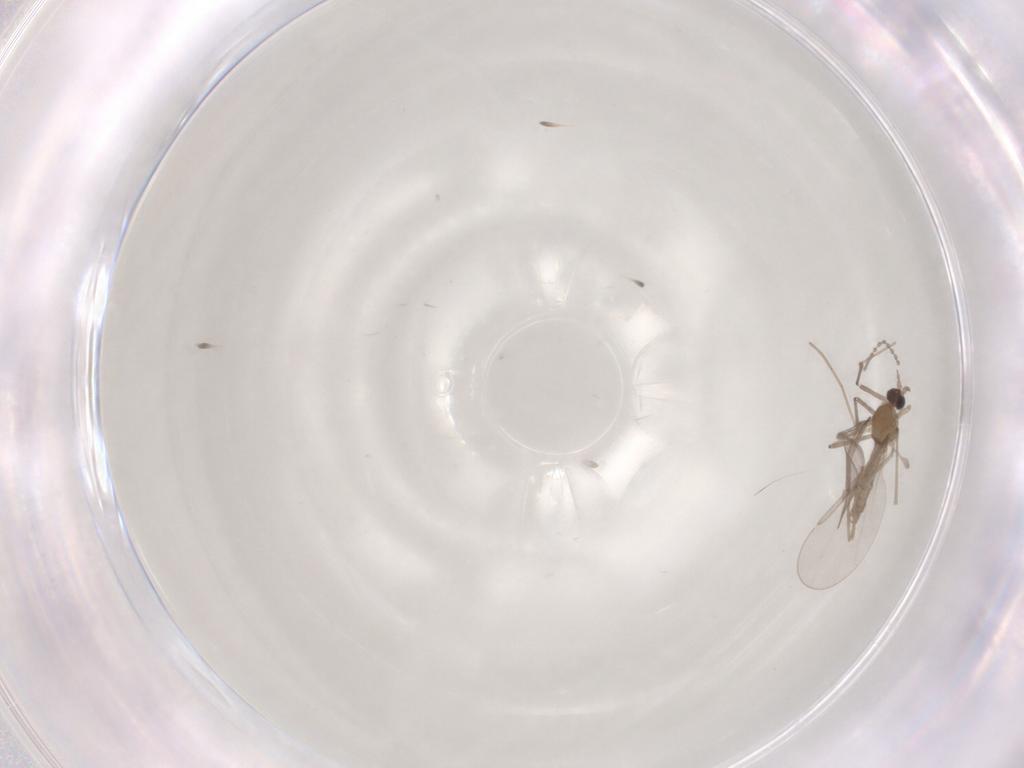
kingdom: Animalia
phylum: Arthropoda
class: Insecta
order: Diptera
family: Cecidomyiidae
